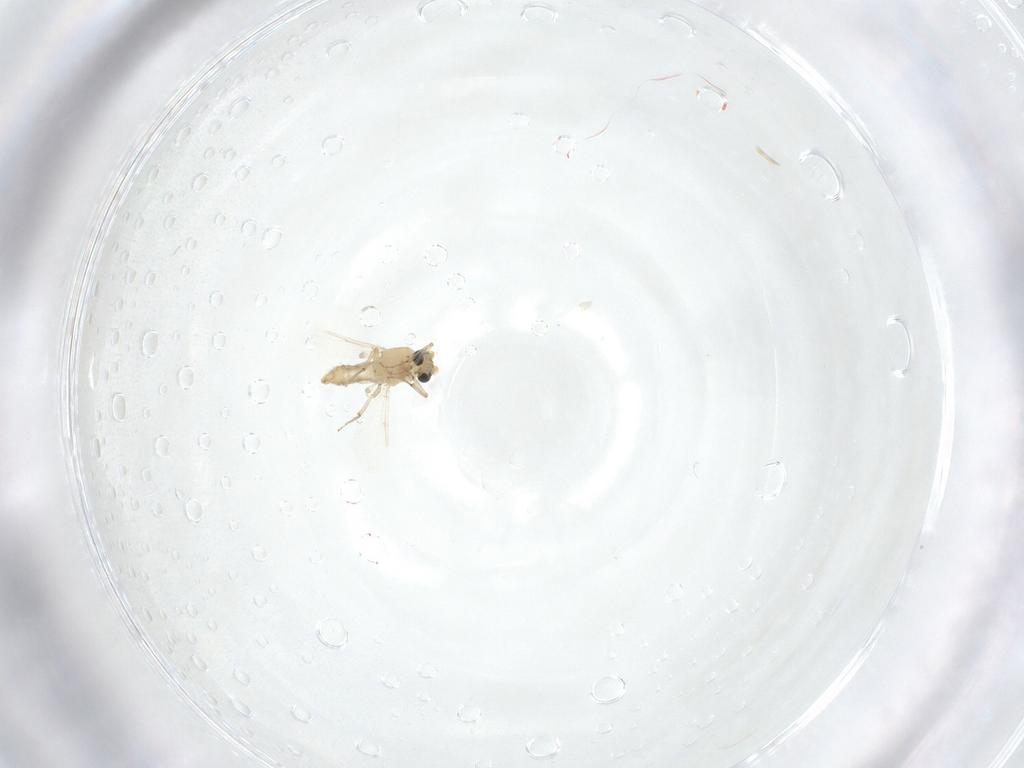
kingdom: Animalia
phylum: Arthropoda
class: Insecta
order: Diptera
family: Ceratopogonidae
